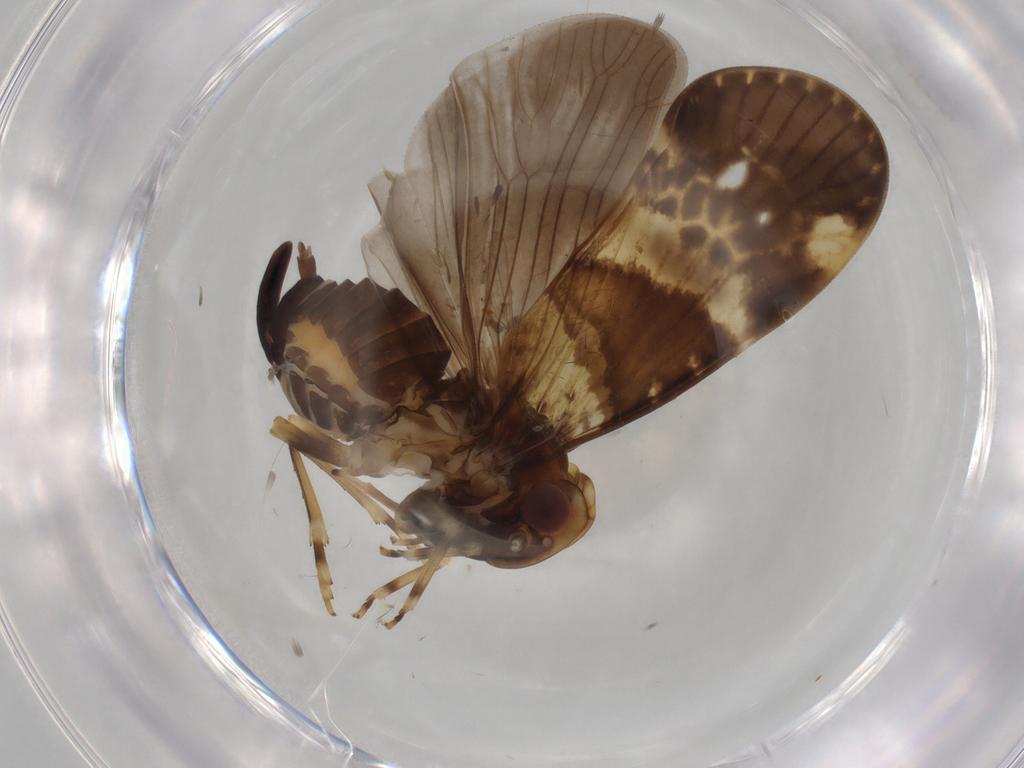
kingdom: Animalia
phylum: Arthropoda
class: Insecta
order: Hemiptera
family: Cixiidae
